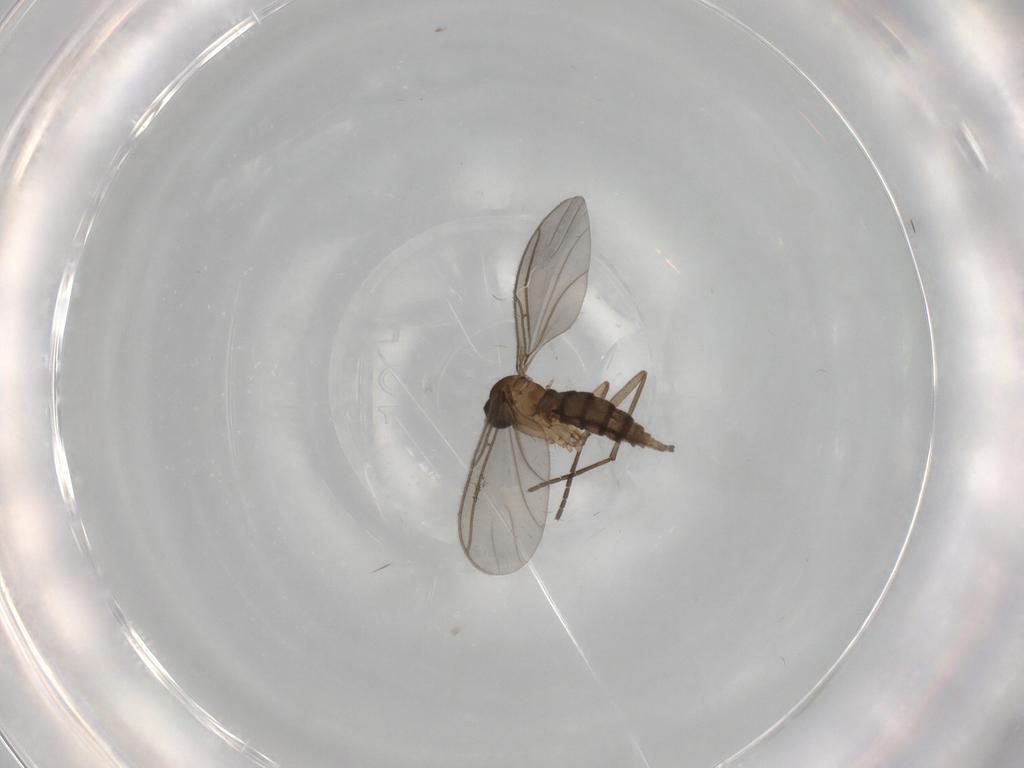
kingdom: Animalia
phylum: Arthropoda
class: Insecta
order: Diptera
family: Sciaridae
